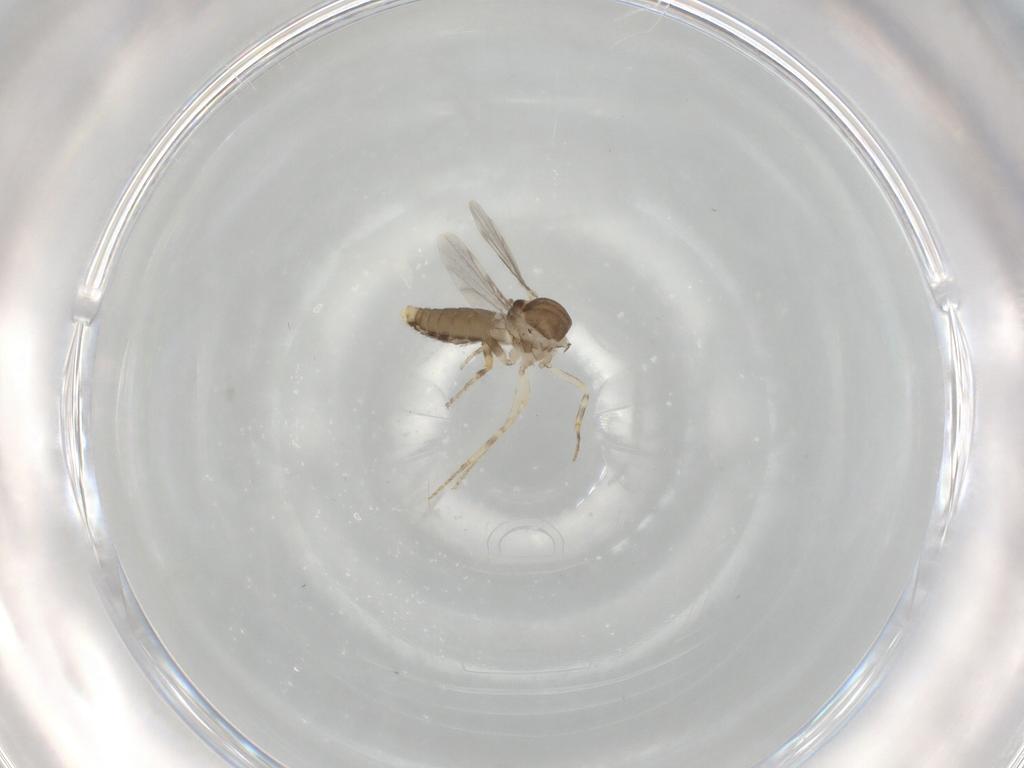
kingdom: Animalia
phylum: Arthropoda
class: Insecta
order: Diptera
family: Ceratopogonidae
